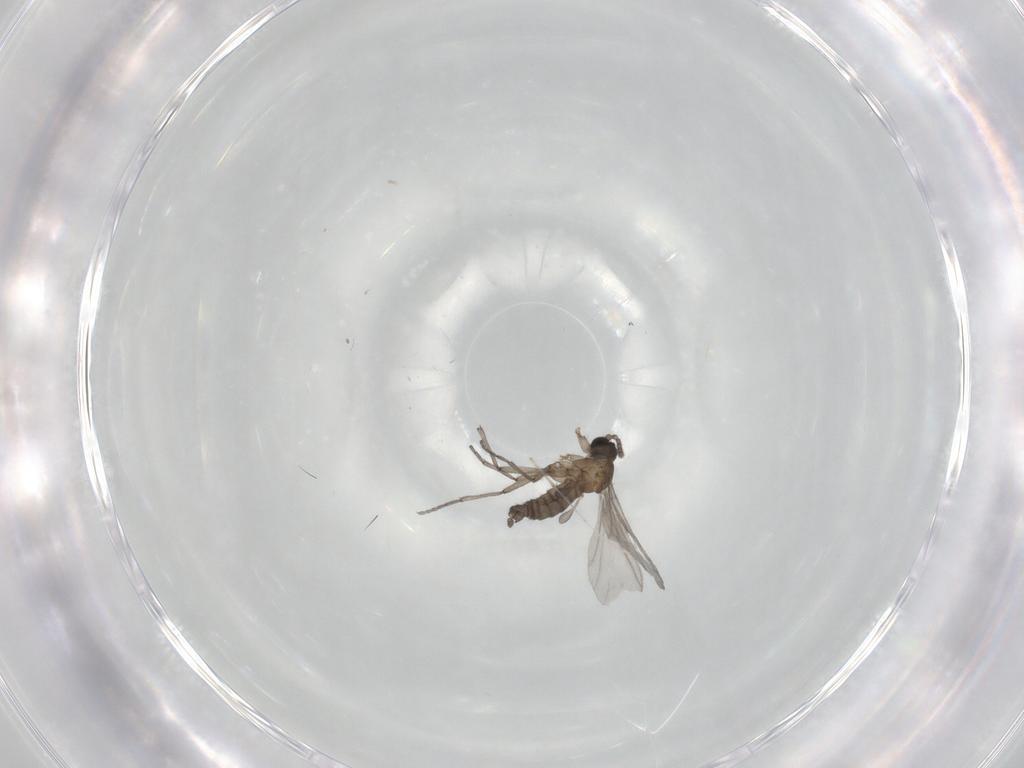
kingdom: Animalia
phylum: Arthropoda
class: Insecta
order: Diptera
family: Sciaridae
